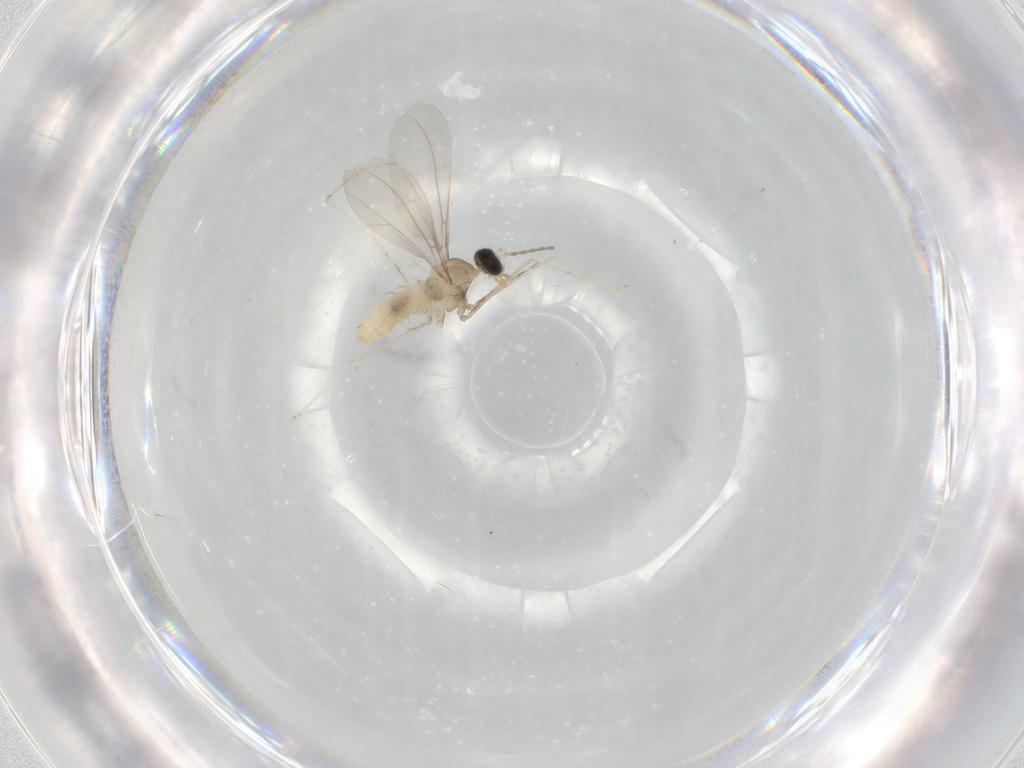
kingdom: Animalia
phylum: Arthropoda
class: Insecta
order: Diptera
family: Cecidomyiidae
